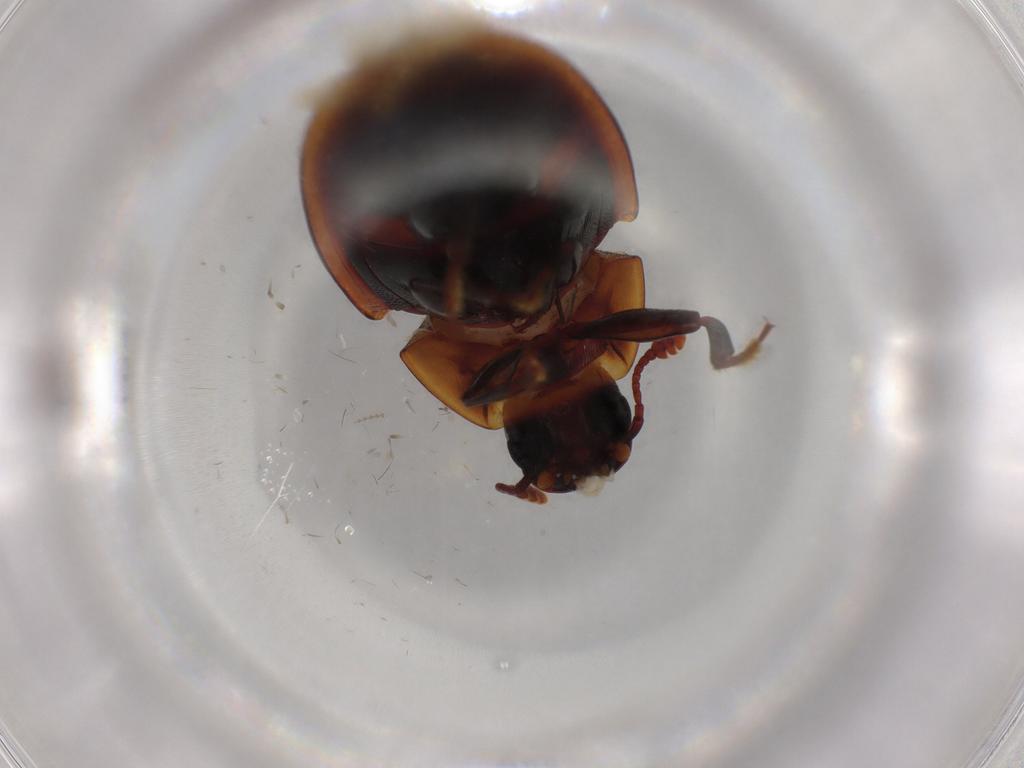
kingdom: Animalia
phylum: Arthropoda
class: Insecta
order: Coleoptera
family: Zopheridae
